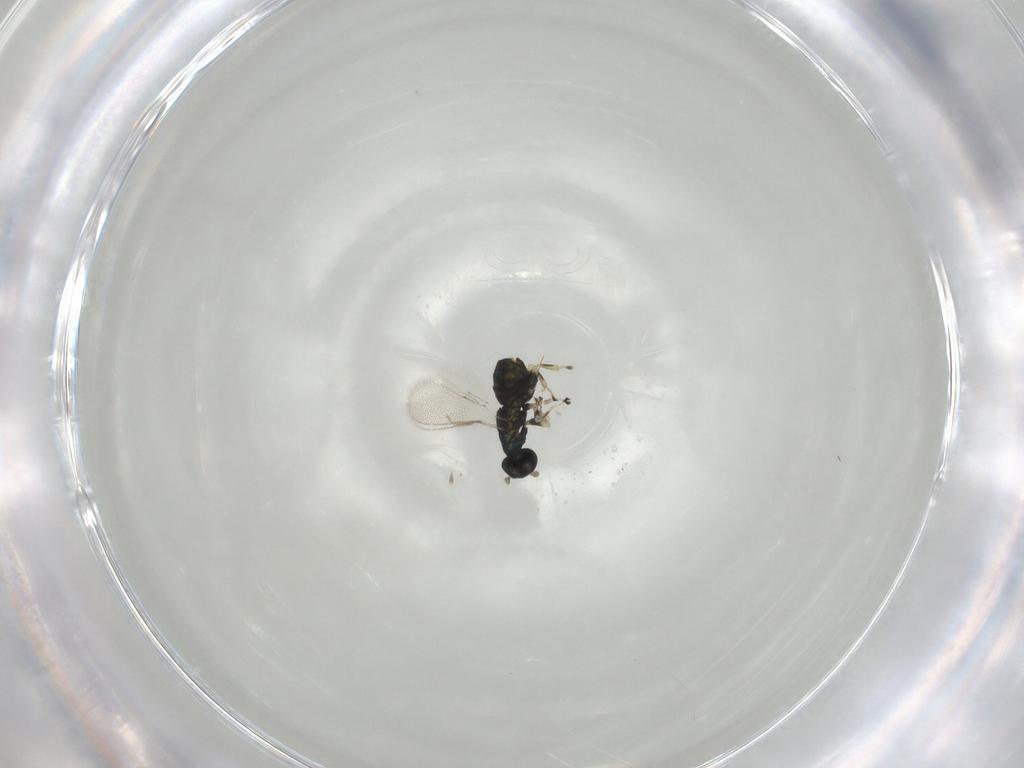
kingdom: Animalia
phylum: Arthropoda
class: Insecta
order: Hymenoptera
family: Eulophidae
